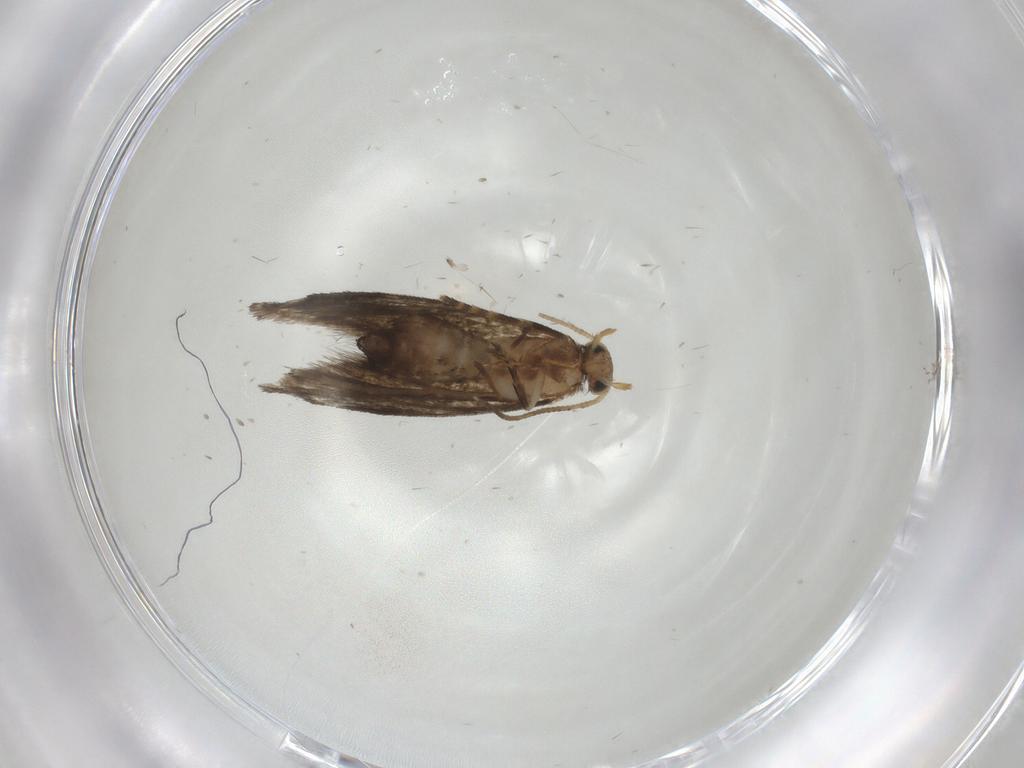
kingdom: Animalia
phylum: Arthropoda
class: Insecta
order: Lepidoptera
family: Tineidae
